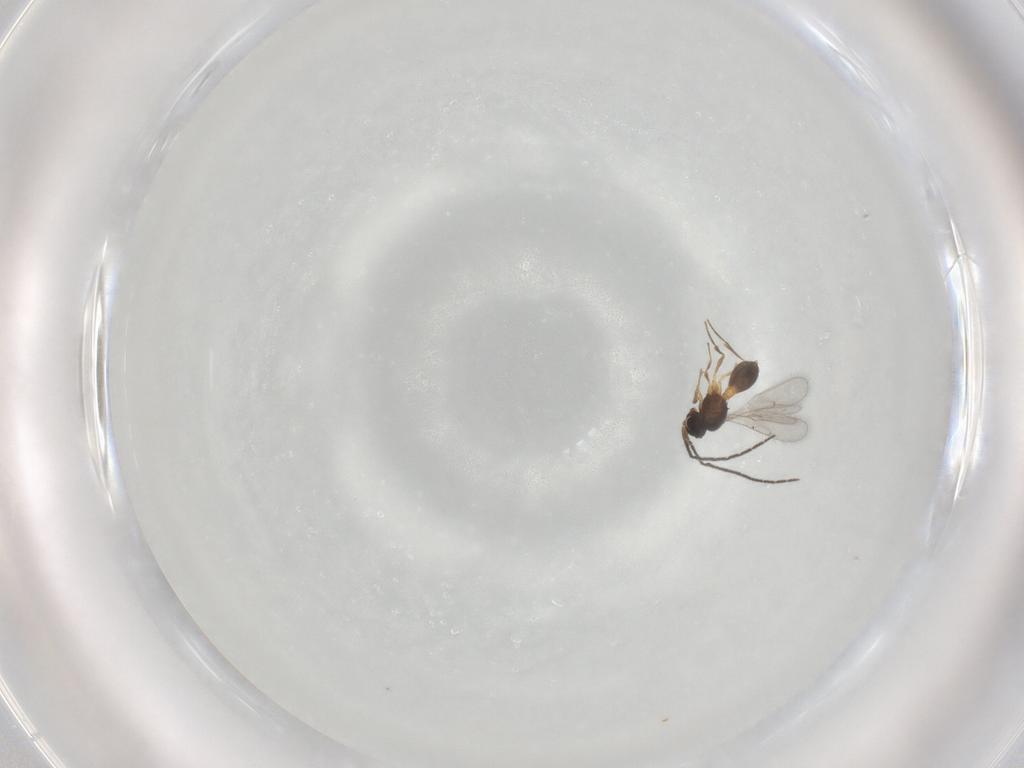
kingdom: Animalia
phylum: Arthropoda
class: Insecta
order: Hymenoptera
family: Scelionidae
